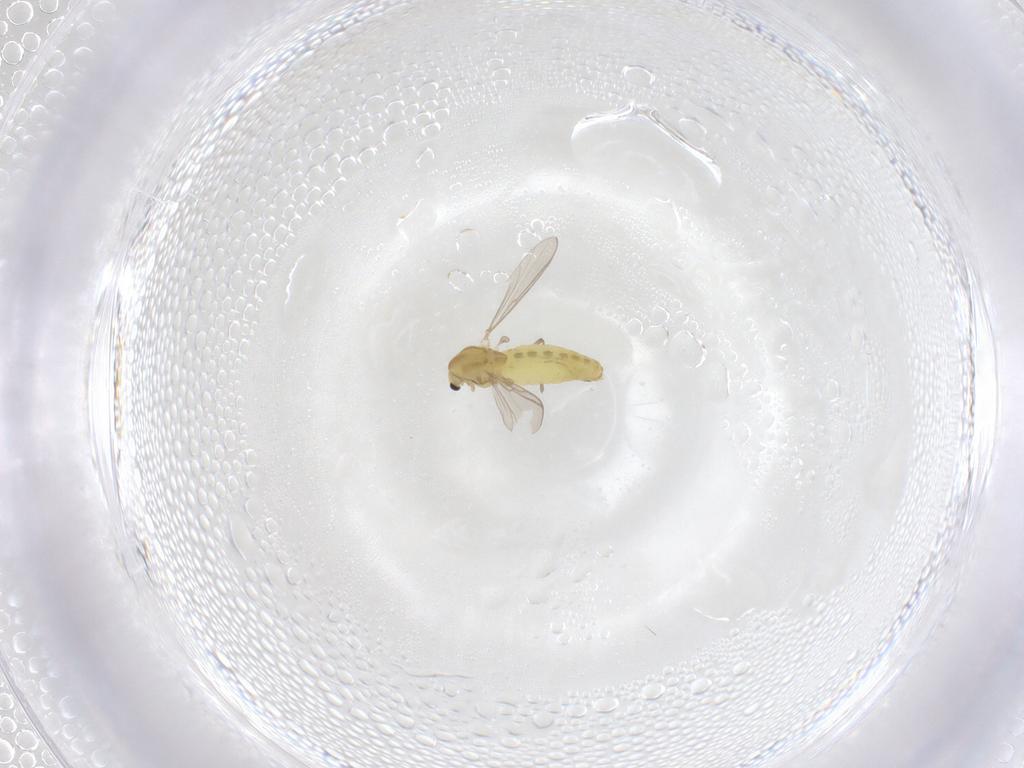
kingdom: Animalia
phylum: Arthropoda
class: Insecta
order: Diptera
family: Chironomidae
